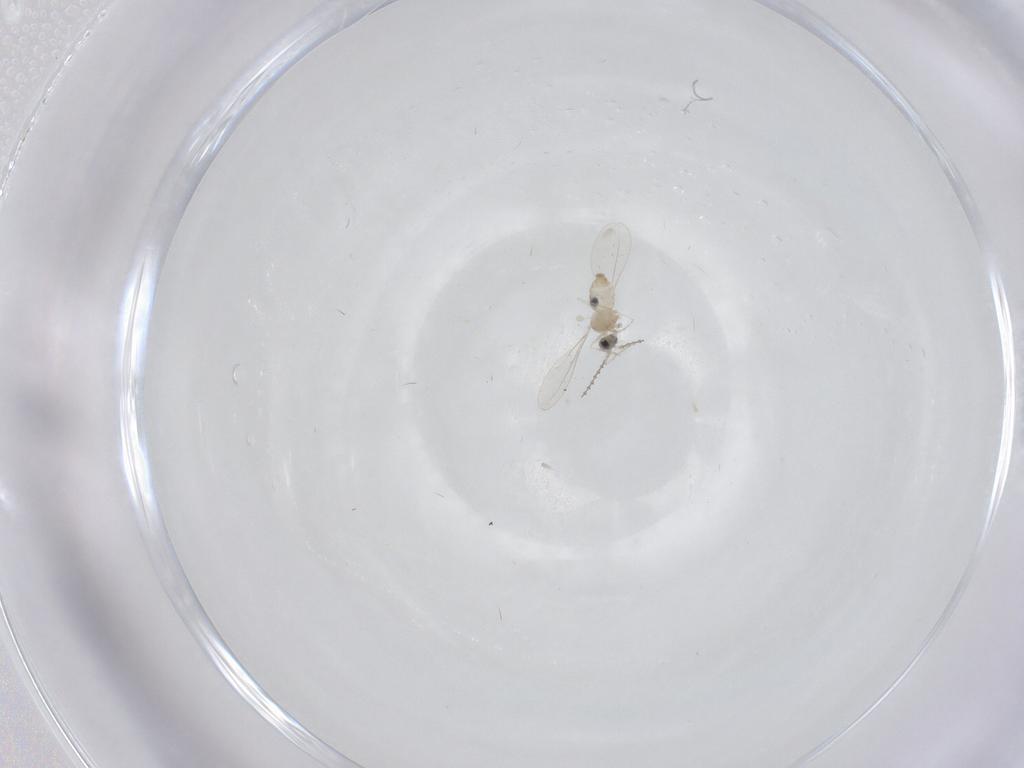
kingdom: Animalia
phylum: Arthropoda
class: Insecta
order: Diptera
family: Cecidomyiidae
